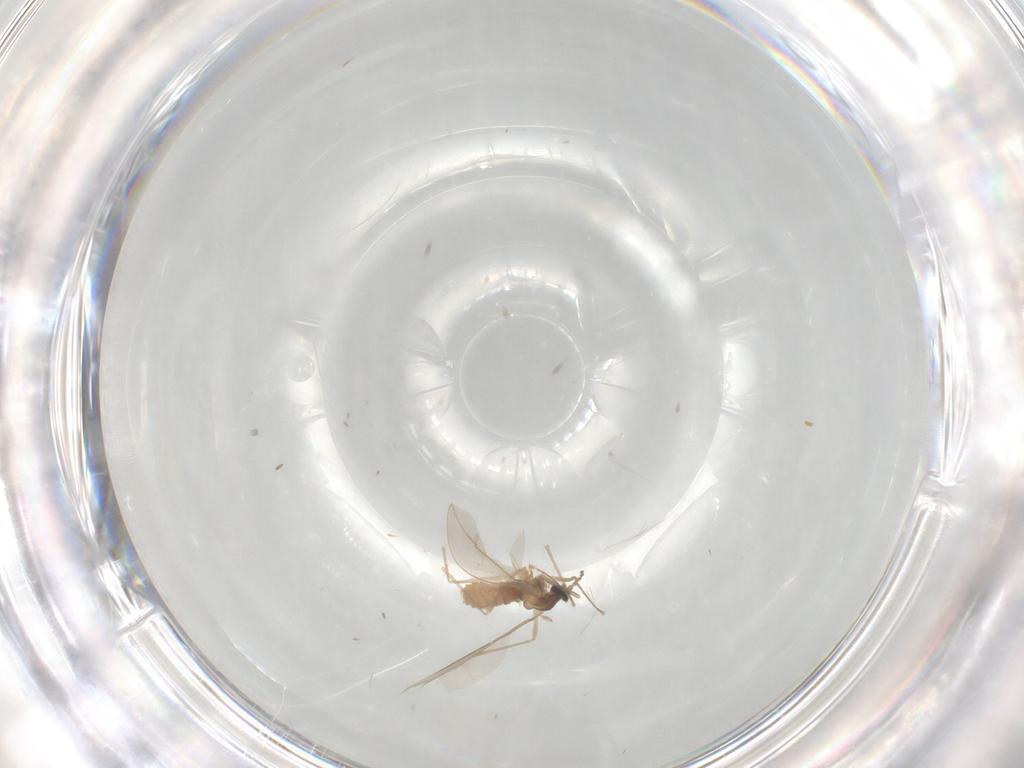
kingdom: Animalia
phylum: Arthropoda
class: Insecta
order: Diptera
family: Cecidomyiidae
